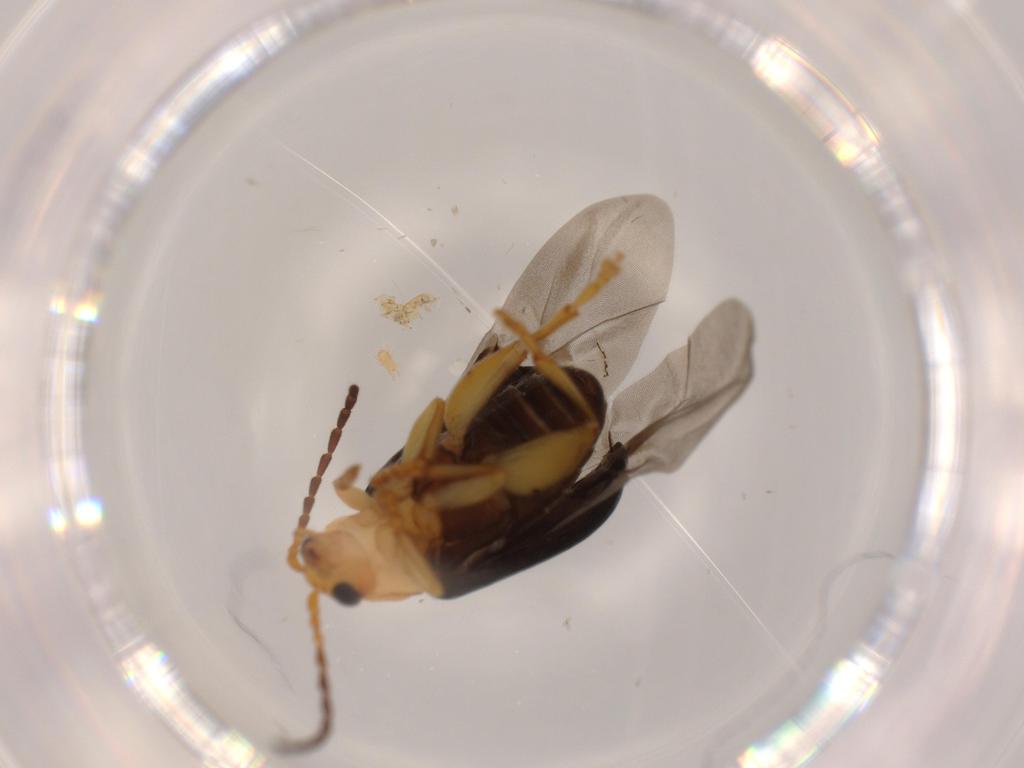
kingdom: Animalia
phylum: Arthropoda
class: Insecta
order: Coleoptera
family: Chrysomelidae
